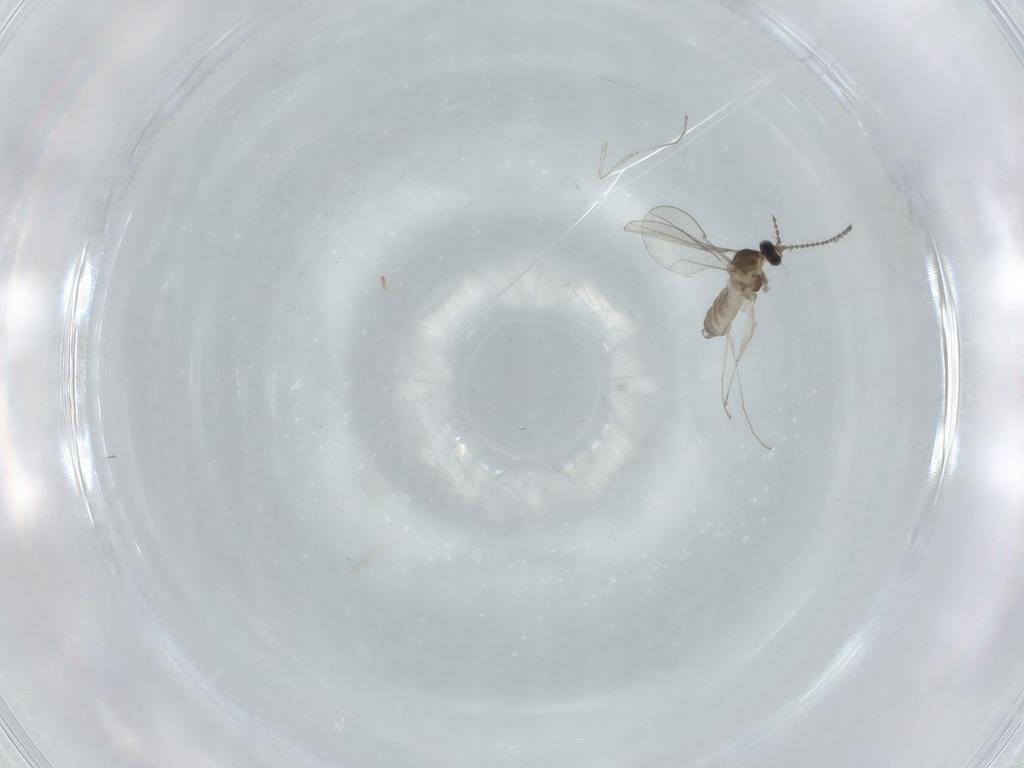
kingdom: Animalia
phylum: Arthropoda
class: Insecta
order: Diptera
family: Cecidomyiidae
